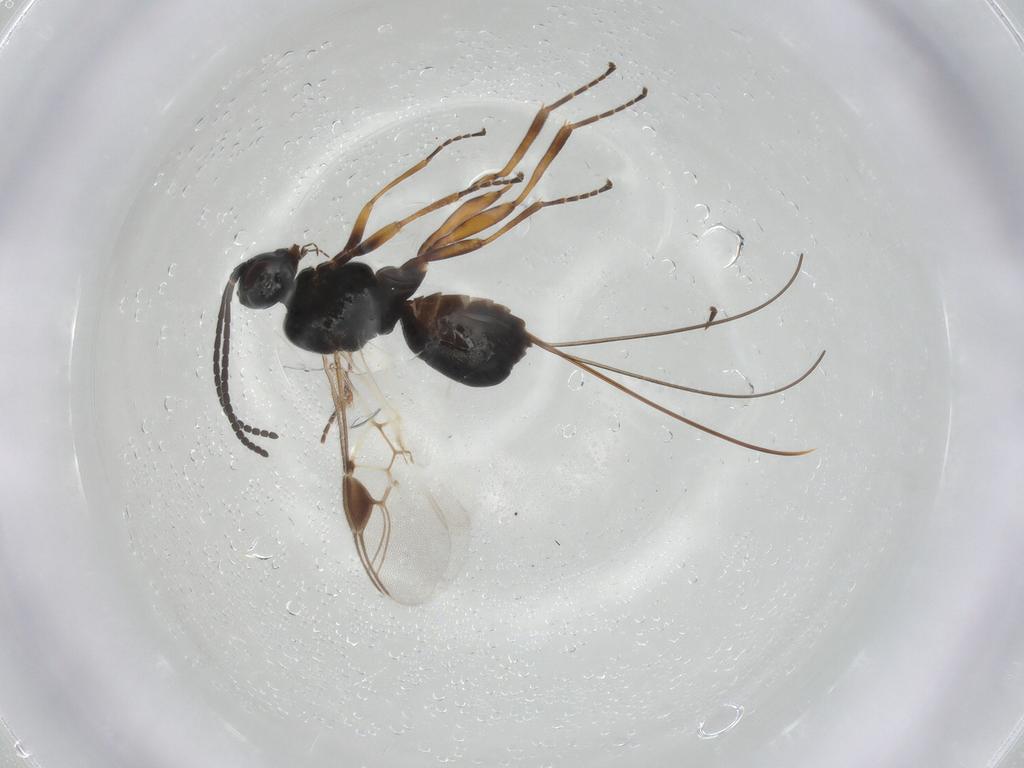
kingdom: Animalia
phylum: Arthropoda
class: Insecta
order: Hymenoptera
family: Braconidae
